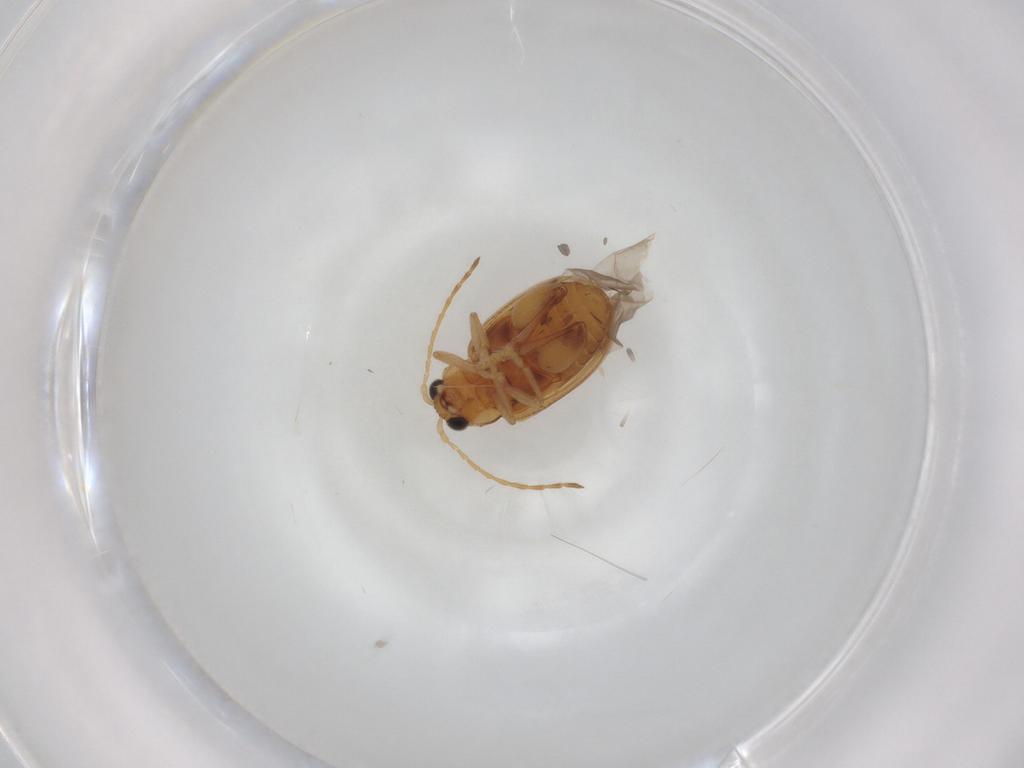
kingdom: Animalia
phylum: Arthropoda
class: Insecta
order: Coleoptera
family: Chrysomelidae
